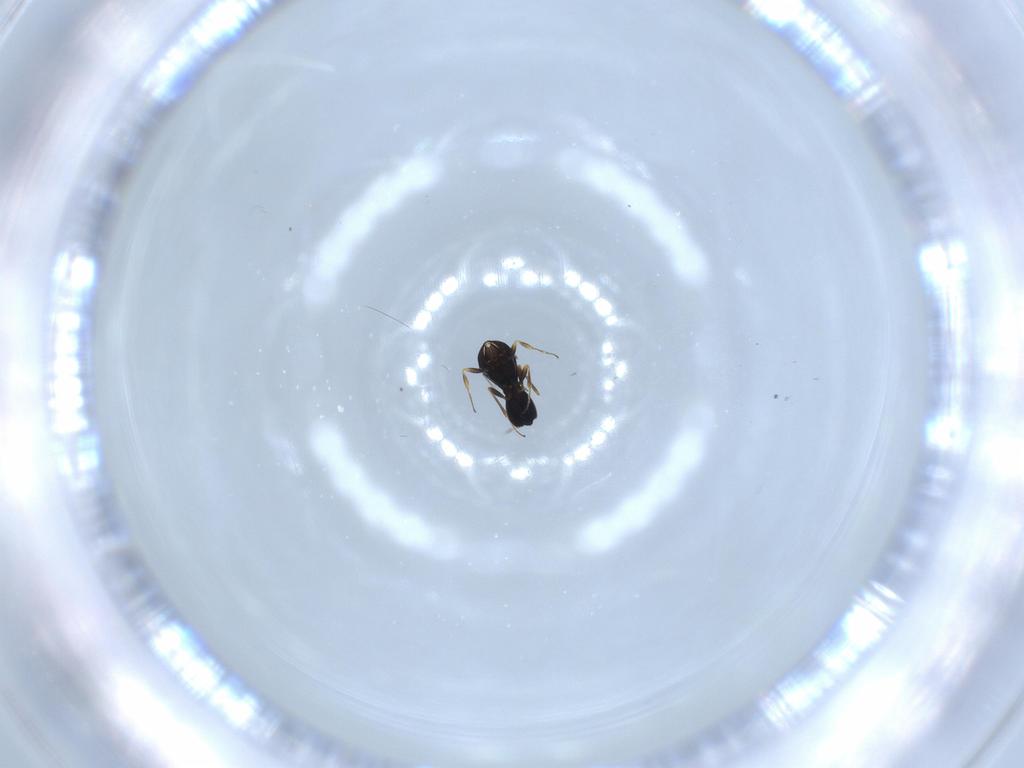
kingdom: Animalia
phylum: Arthropoda
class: Insecta
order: Hymenoptera
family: Scelionidae
